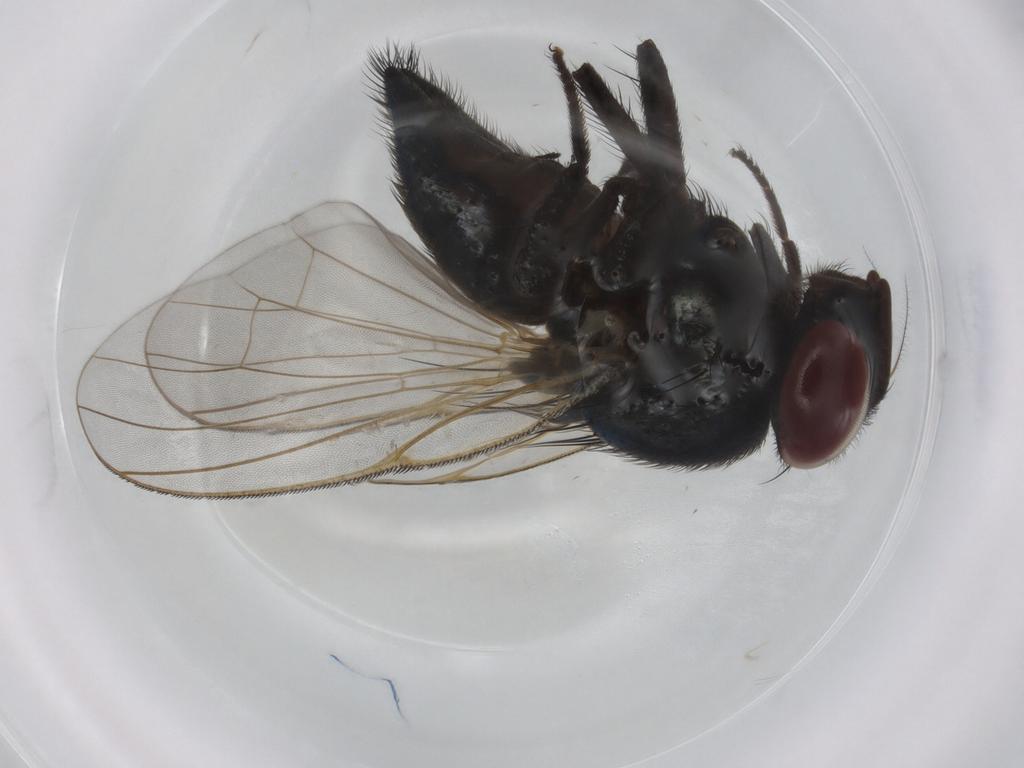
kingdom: Animalia
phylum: Arthropoda
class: Insecta
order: Diptera
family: Lonchaeidae
